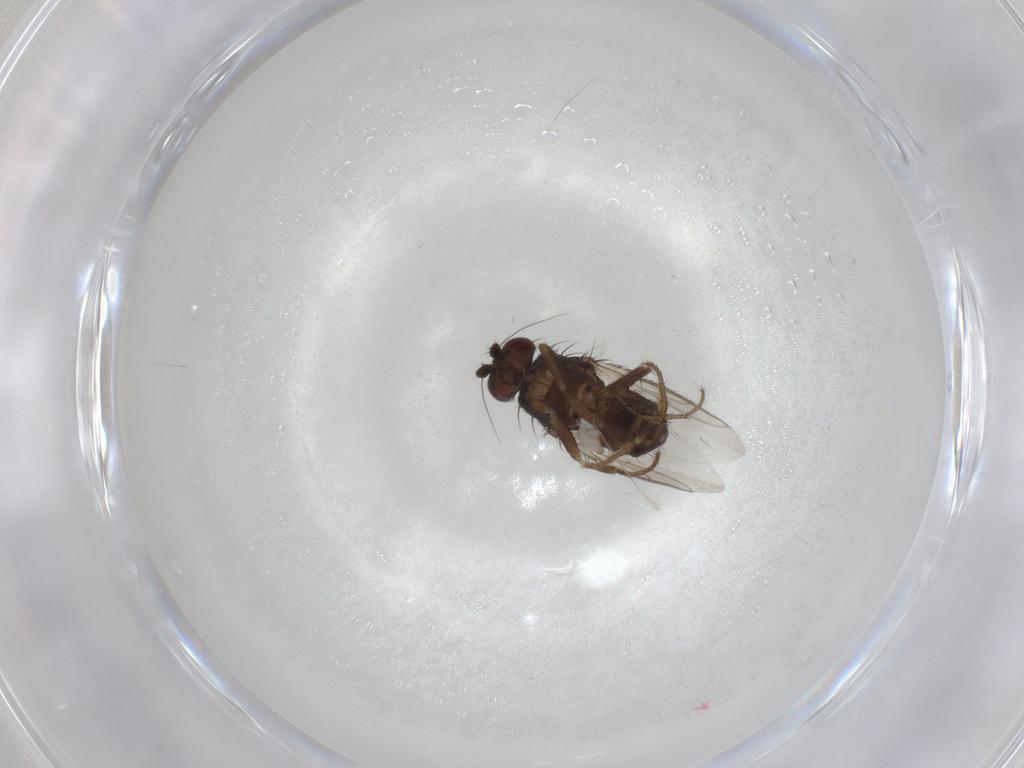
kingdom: Animalia
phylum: Arthropoda
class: Insecta
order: Diptera
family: Sphaeroceridae
